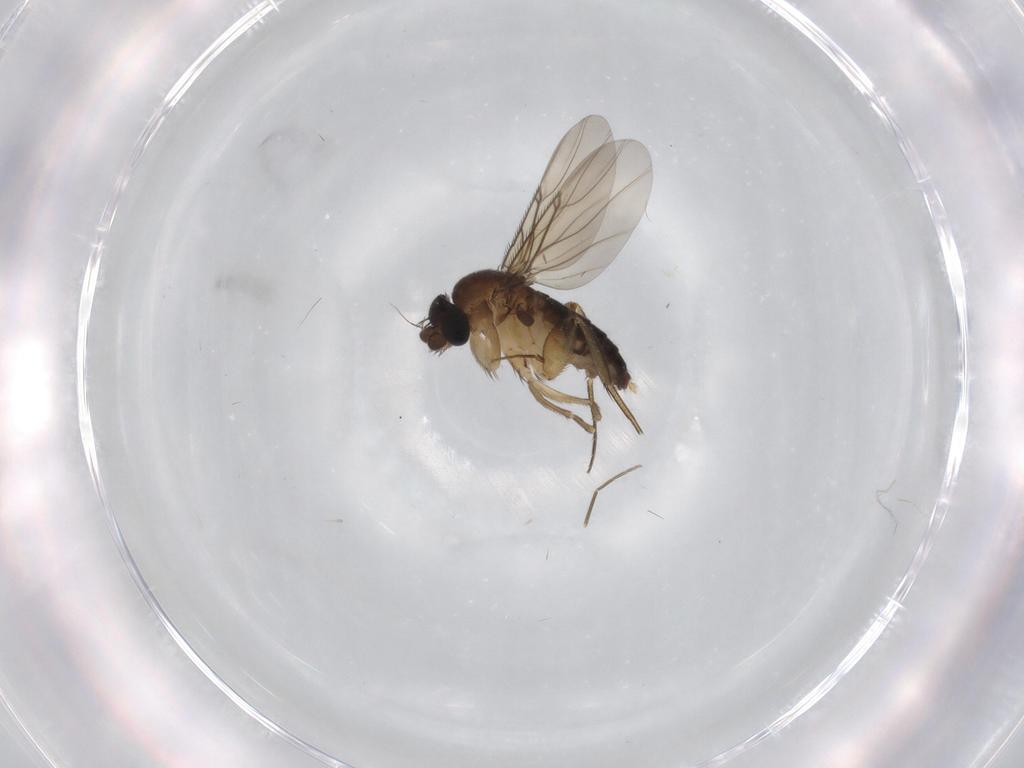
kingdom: Animalia
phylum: Arthropoda
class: Insecta
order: Diptera
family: Phoridae
